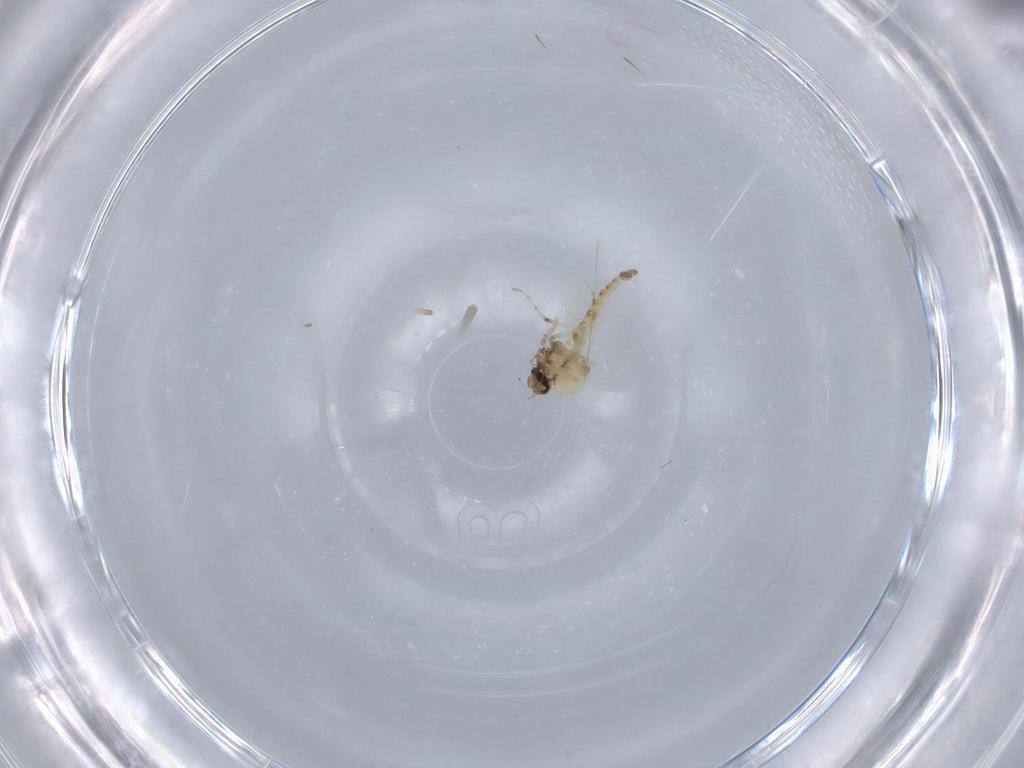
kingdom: Animalia
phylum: Arthropoda
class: Insecta
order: Diptera
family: Ceratopogonidae
